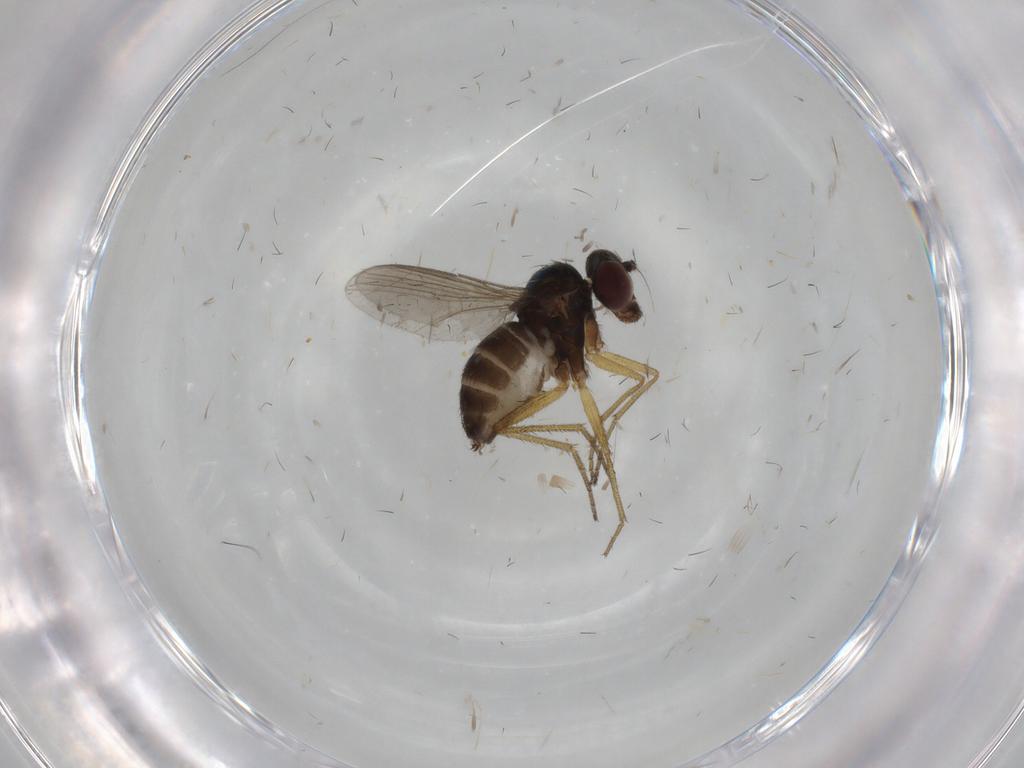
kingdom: Animalia
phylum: Arthropoda
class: Insecta
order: Diptera
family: Dolichopodidae
